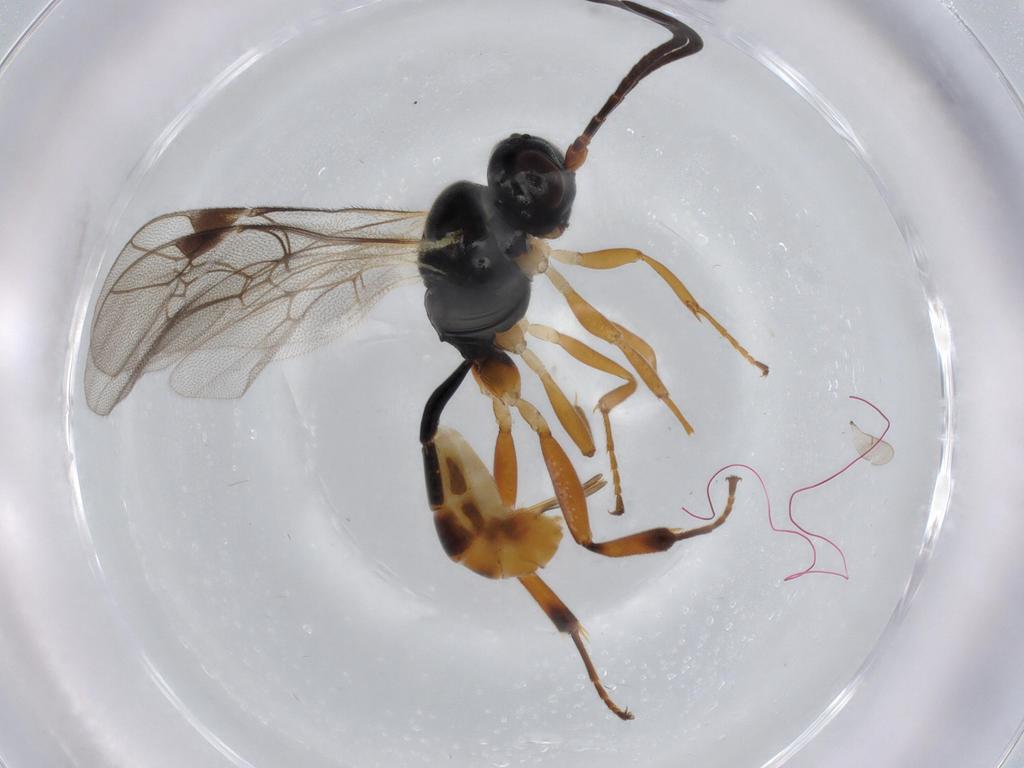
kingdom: Animalia
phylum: Arthropoda
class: Insecta
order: Hymenoptera
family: Ichneumonidae
